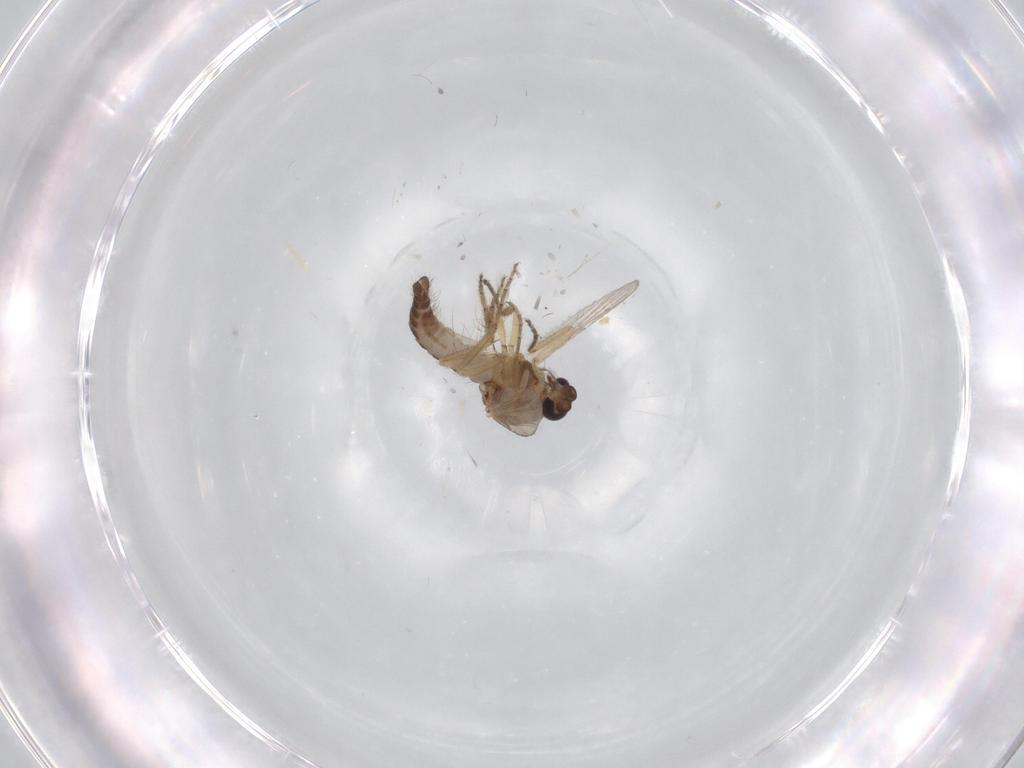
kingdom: Animalia
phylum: Arthropoda
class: Insecta
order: Diptera
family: Ceratopogonidae
